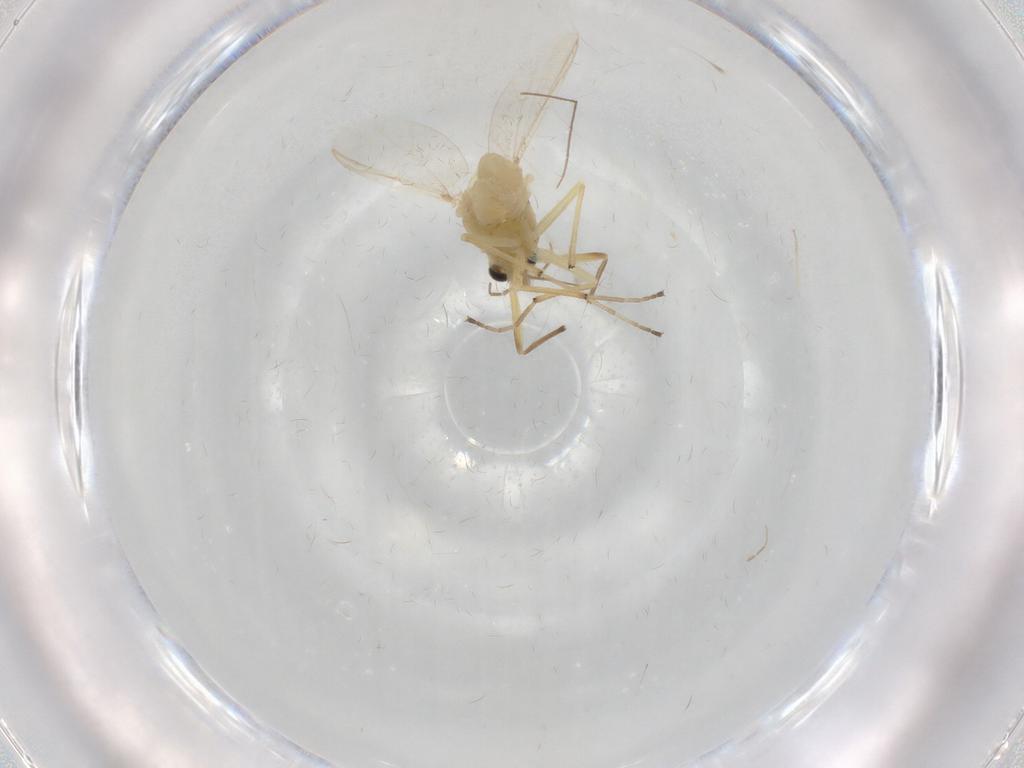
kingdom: Animalia
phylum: Arthropoda
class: Insecta
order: Diptera
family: Chironomidae
